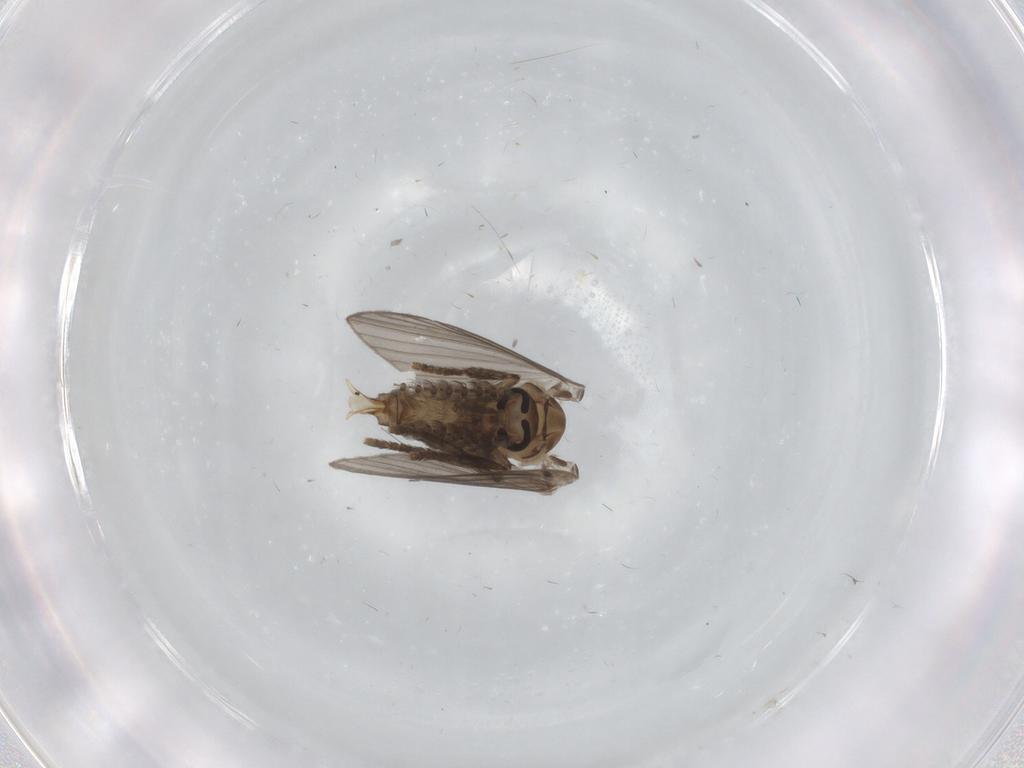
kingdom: Animalia
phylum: Arthropoda
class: Insecta
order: Diptera
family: Psychodidae
